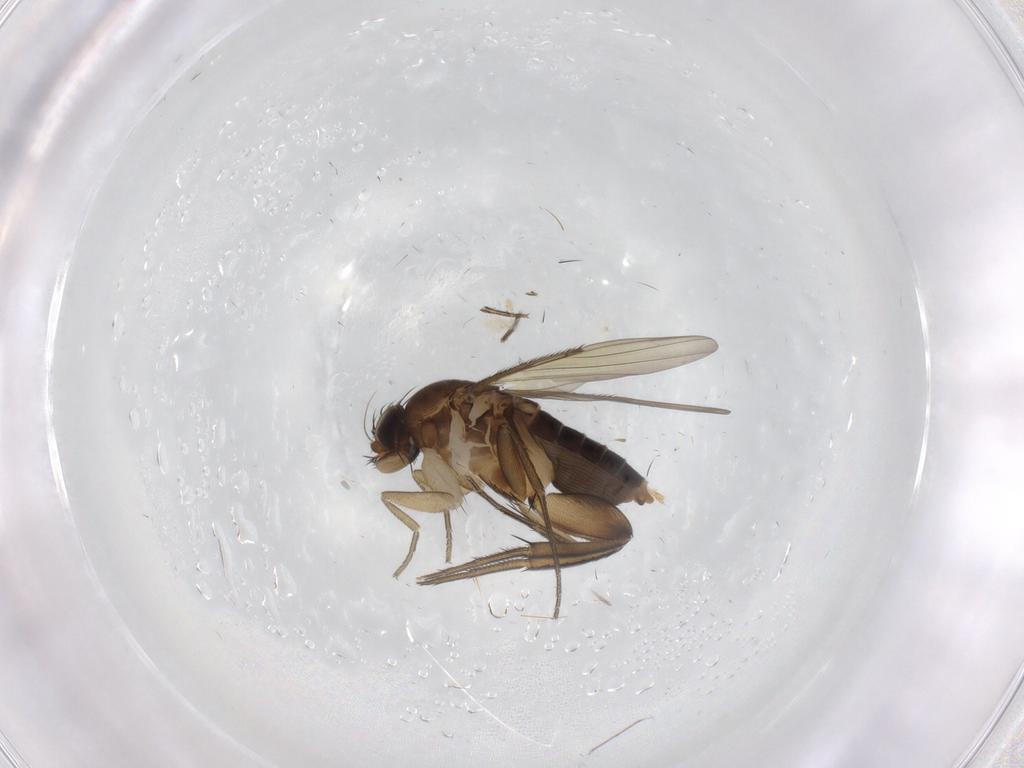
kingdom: Animalia
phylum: Arthropoda
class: Insecta
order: Diptera
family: Phoridae
